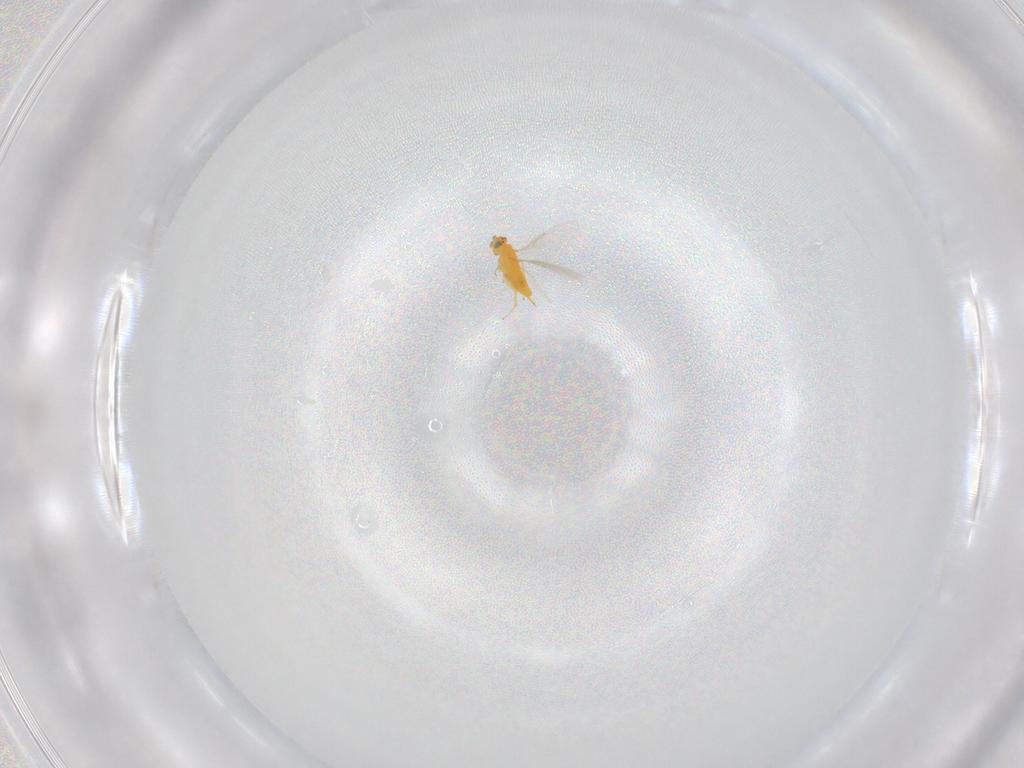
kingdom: Animalia
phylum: Arthropoda
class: Insecta
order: Hymenoptera
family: Aphelinidae
